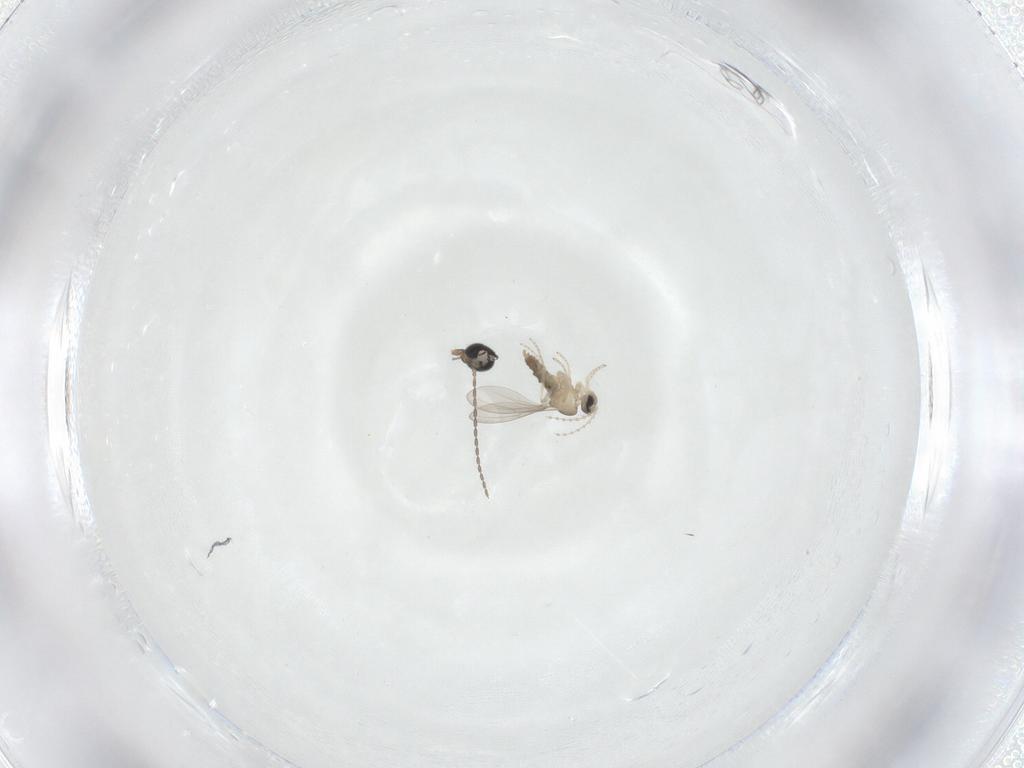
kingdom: Animalia
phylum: Arthropoda
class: Insecta
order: Diptera
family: Cecidomyiidae
